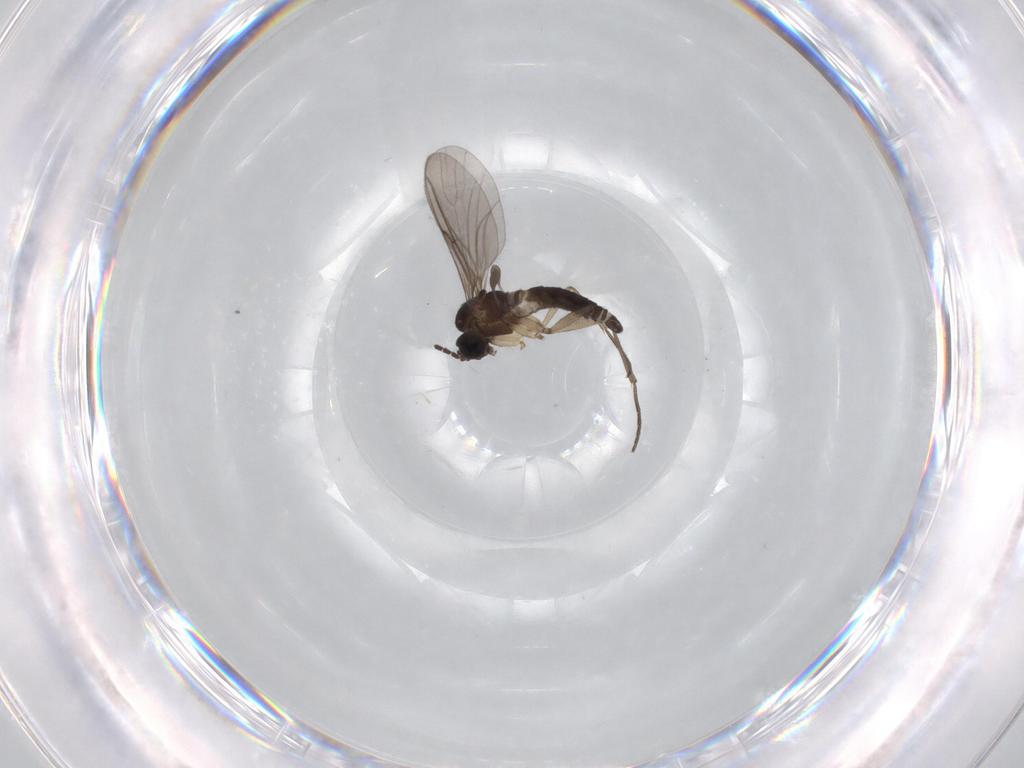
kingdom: Animalia
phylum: Arthropoda
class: Insecta
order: Diptera
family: Sciaridae
